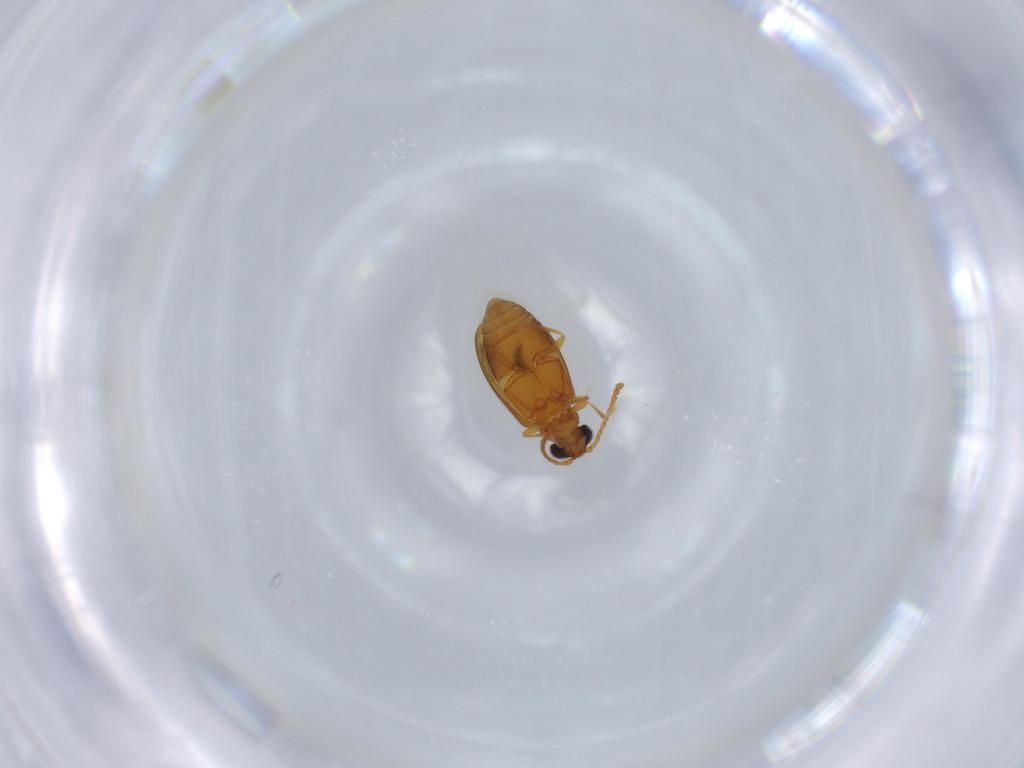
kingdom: Animalia
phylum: Arthropoda
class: Insecta
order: Coleoptera
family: Aderidae
